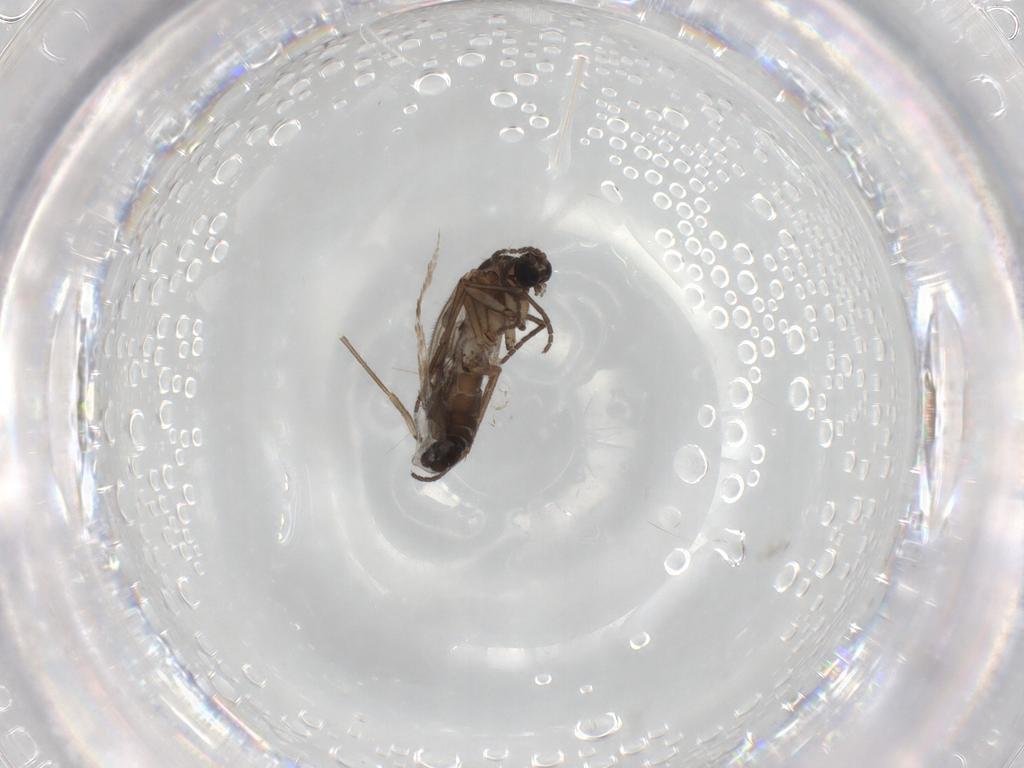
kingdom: Animalia
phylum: Arthropoda
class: Insecta
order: Diptera
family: Sciaridae
